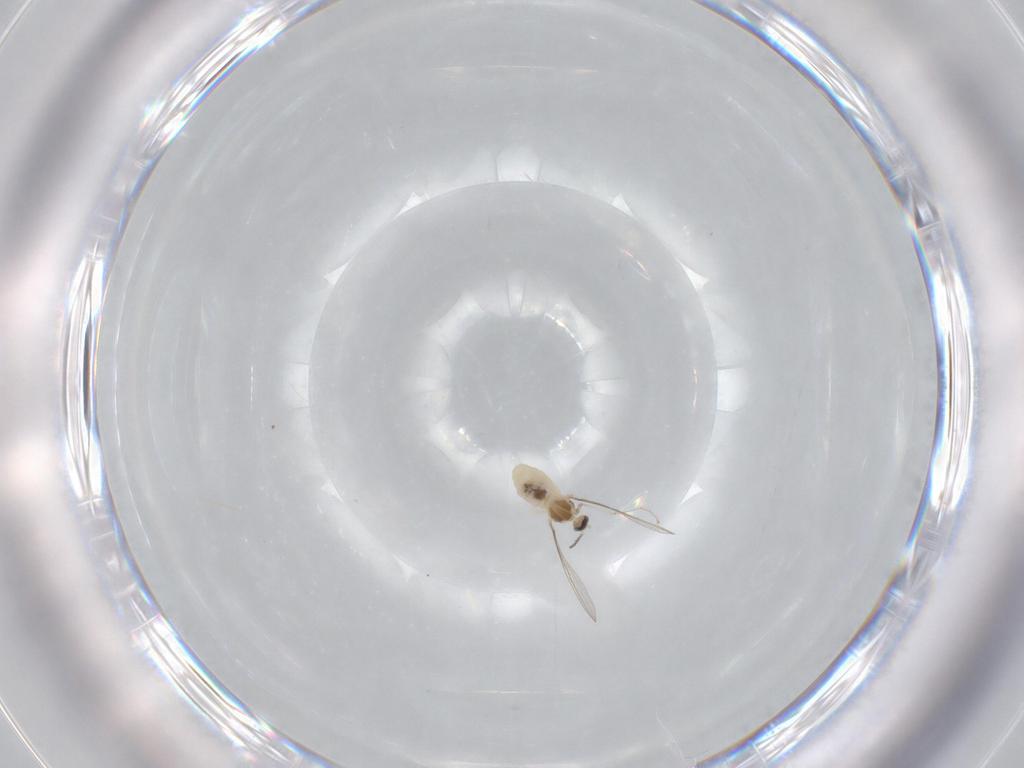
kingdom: Animalia
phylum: Arthropoda
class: Insecta
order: Diptera
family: Cecidomyiidae
